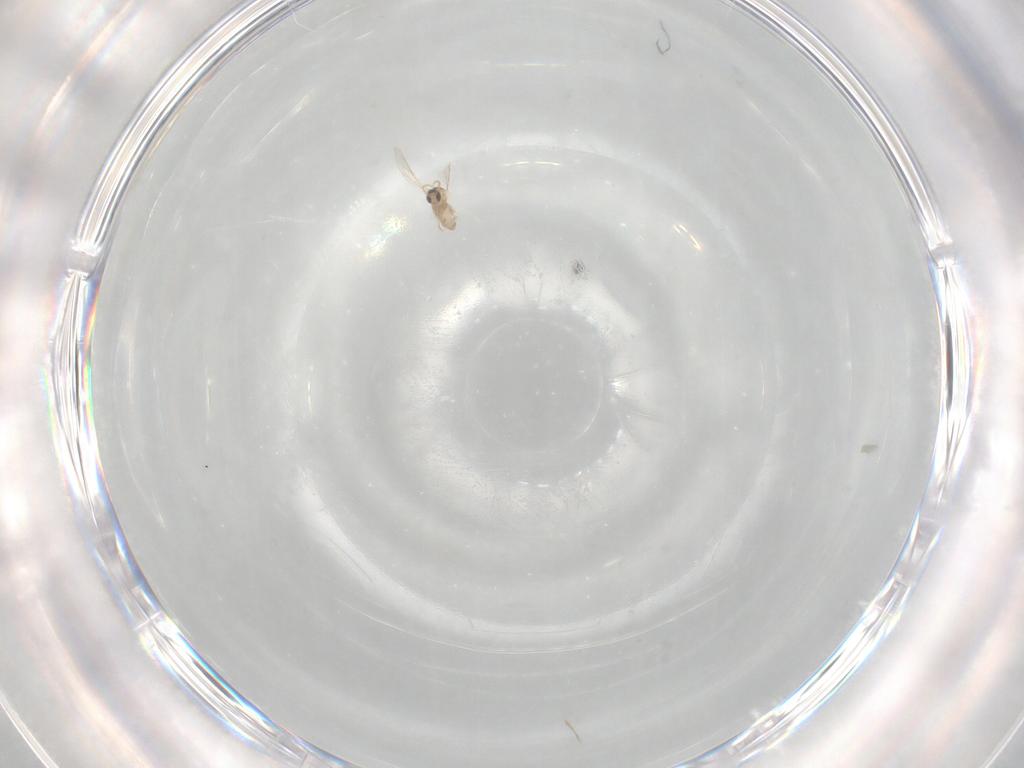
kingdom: Animalia
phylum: Arthropoda
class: Insecta
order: Diptera
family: Cecidomyiidae
